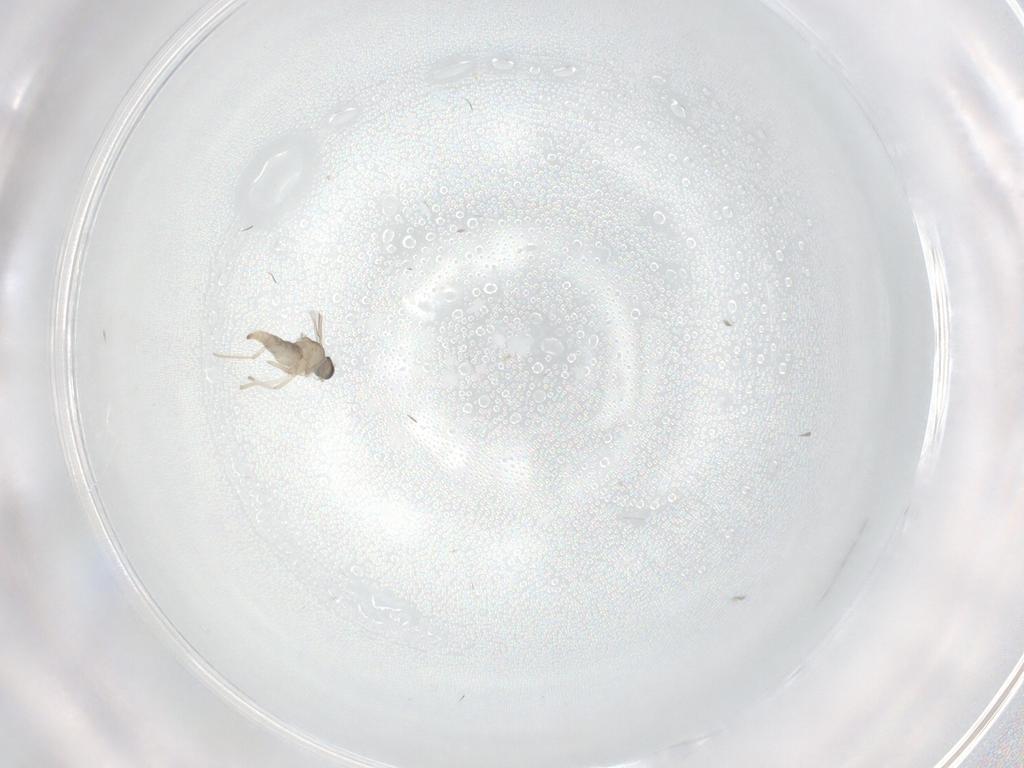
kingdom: Animalia
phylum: Arthropoda
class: Insecta
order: Diptera
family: Cecidomyiidae
